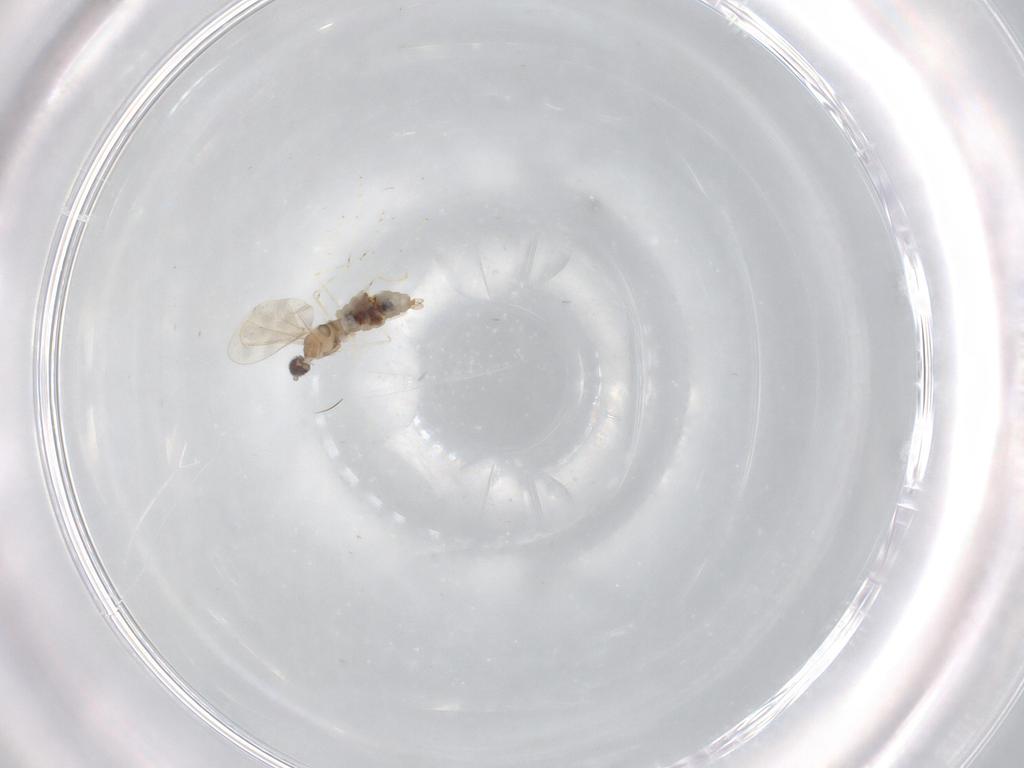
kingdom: Animalia
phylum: Arthropoda
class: Insecta
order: Diptera
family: Cecidomyiidae
